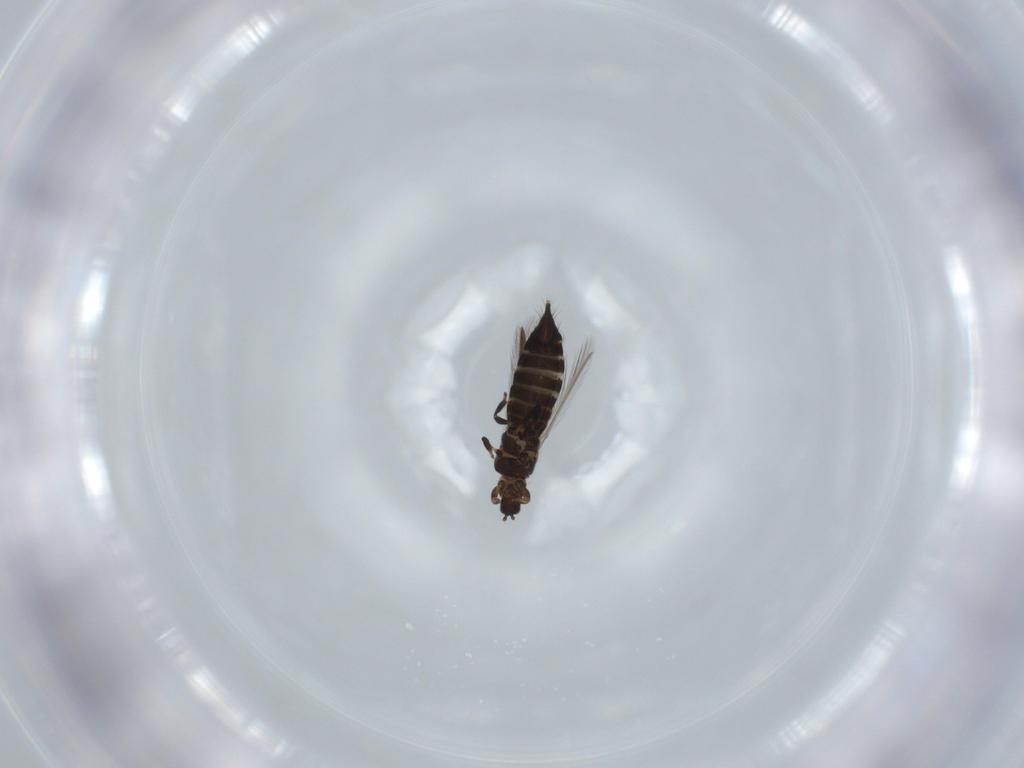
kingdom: Animalia
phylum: Arthropoda
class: Insecta
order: Thysanoptera
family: Thripidae
